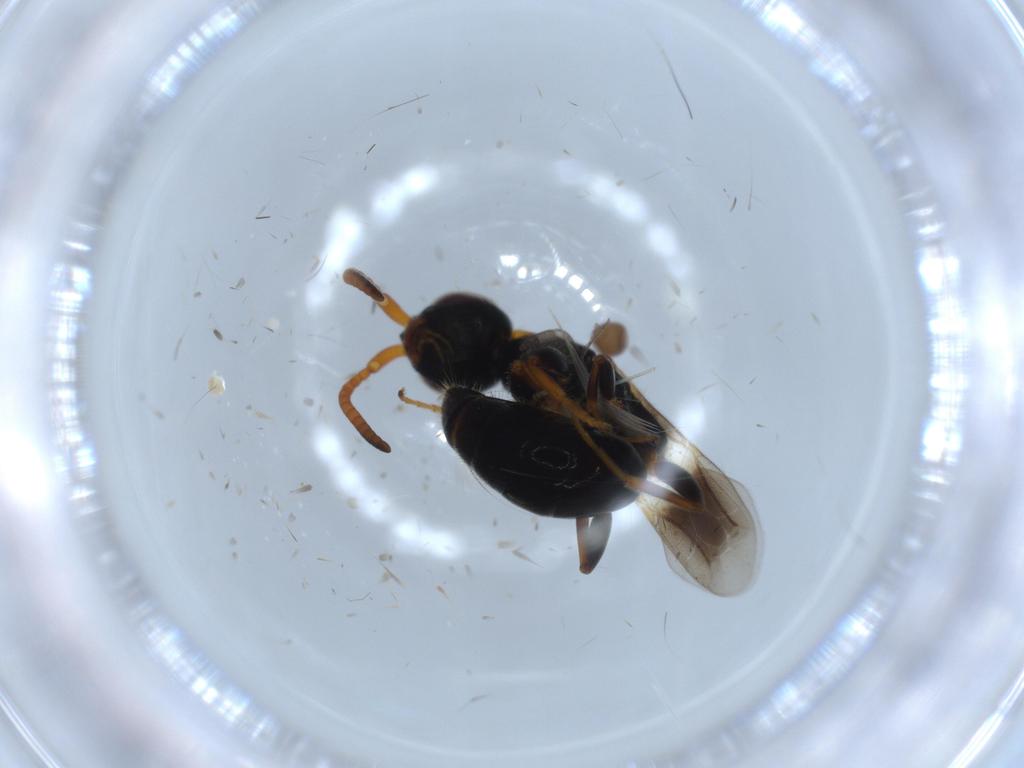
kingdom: Animalia
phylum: Arthropoda
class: Insecta
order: Hymenoptera
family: Bethylidae
